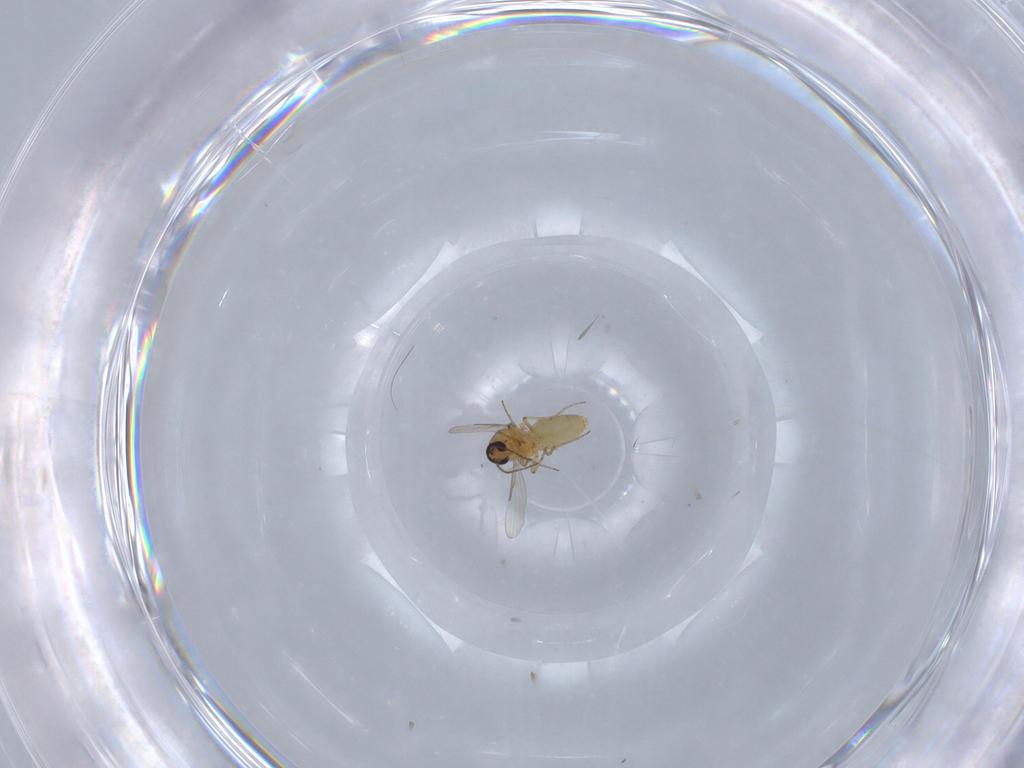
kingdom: Animalia
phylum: Arthropoda
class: Insecta
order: Diptera
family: Ceratopogonidae
